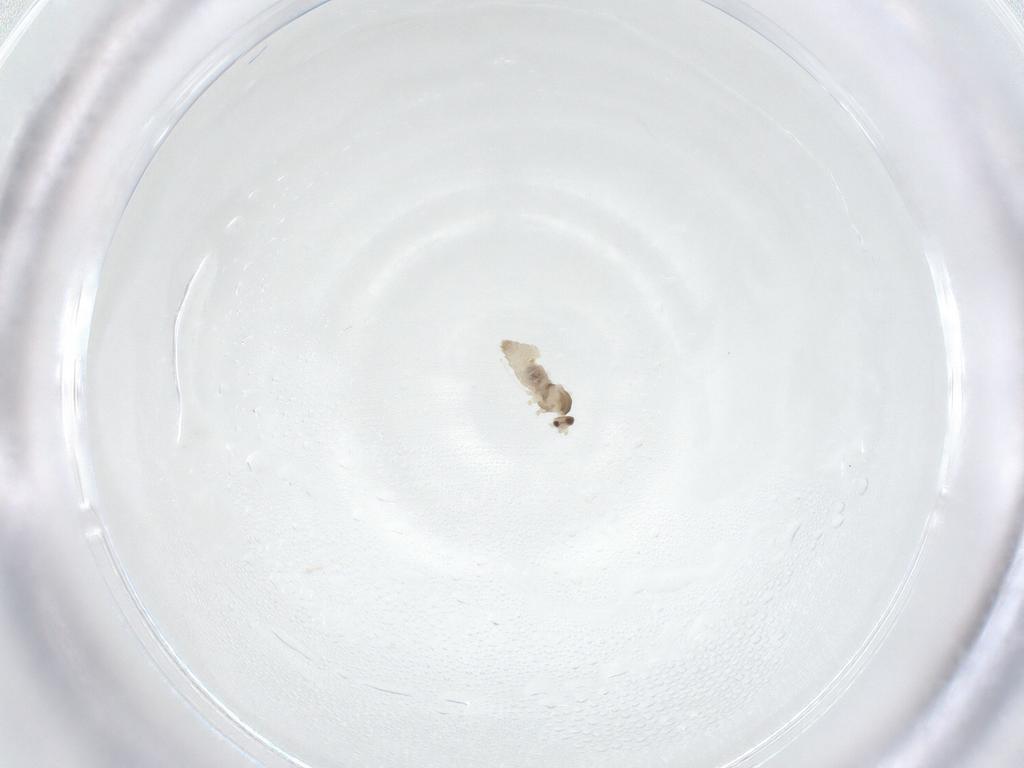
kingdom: Animalia
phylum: Arthropoda
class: Insecta
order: Diptera
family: Cecidomyiidae
